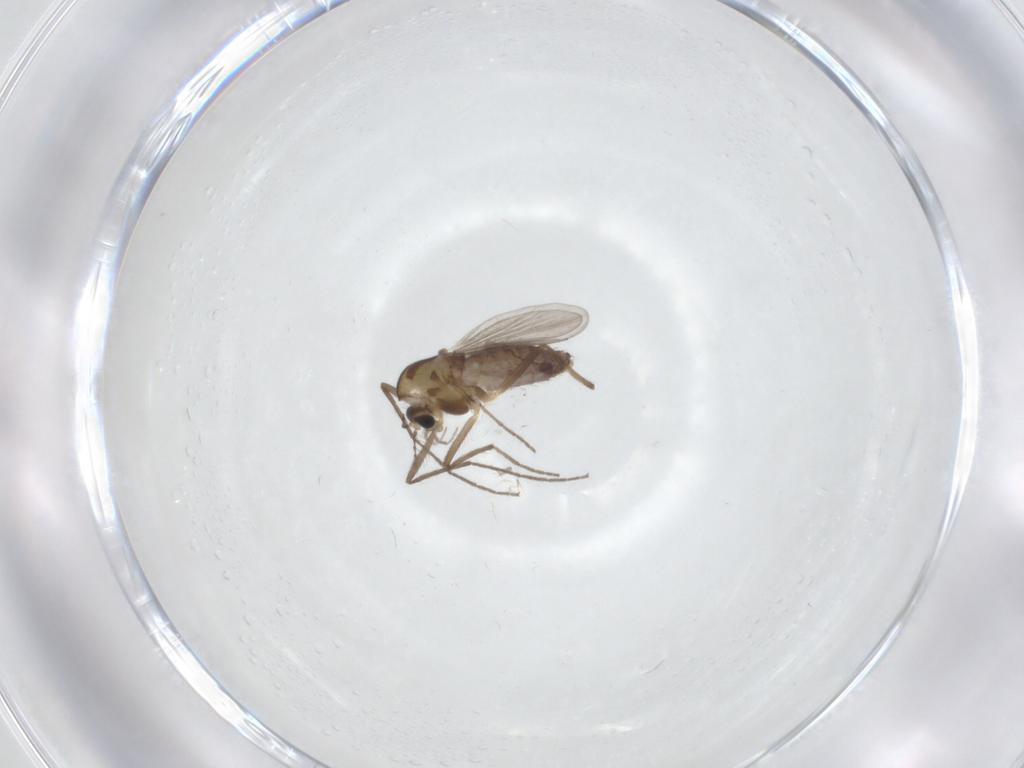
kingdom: Animalia
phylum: Arthropoda
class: Insecta
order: Diptera
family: Chironomidae
